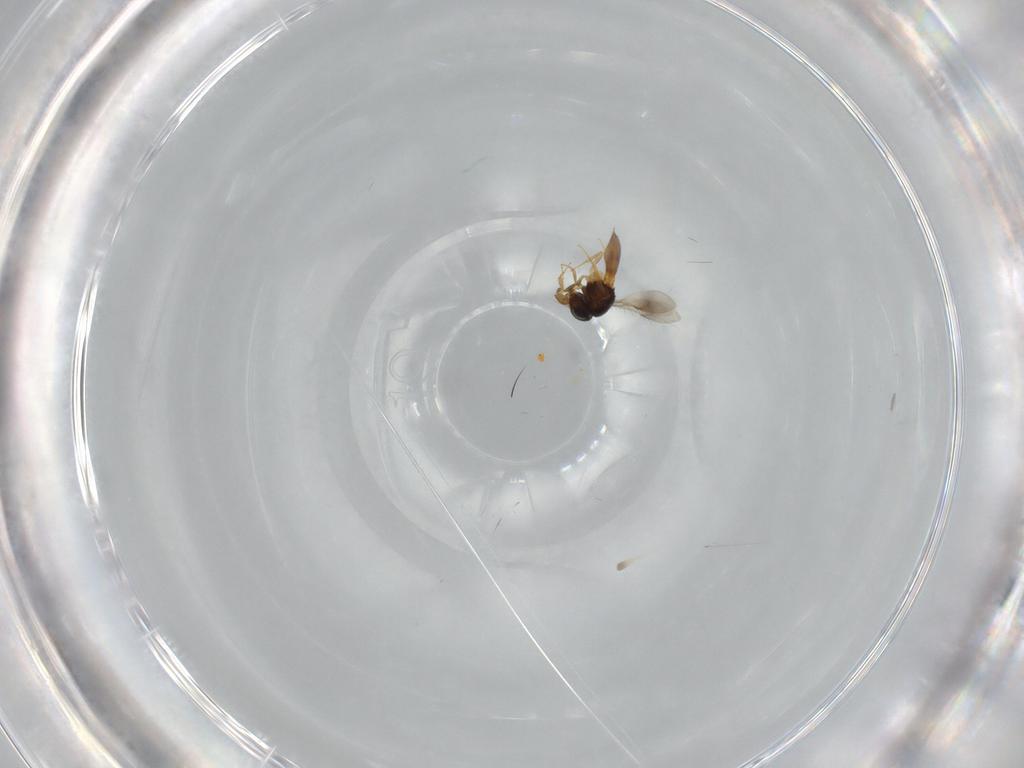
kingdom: Animalia
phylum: Arthropoda
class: Insecta
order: Hymenoptera
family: Scelionidae
